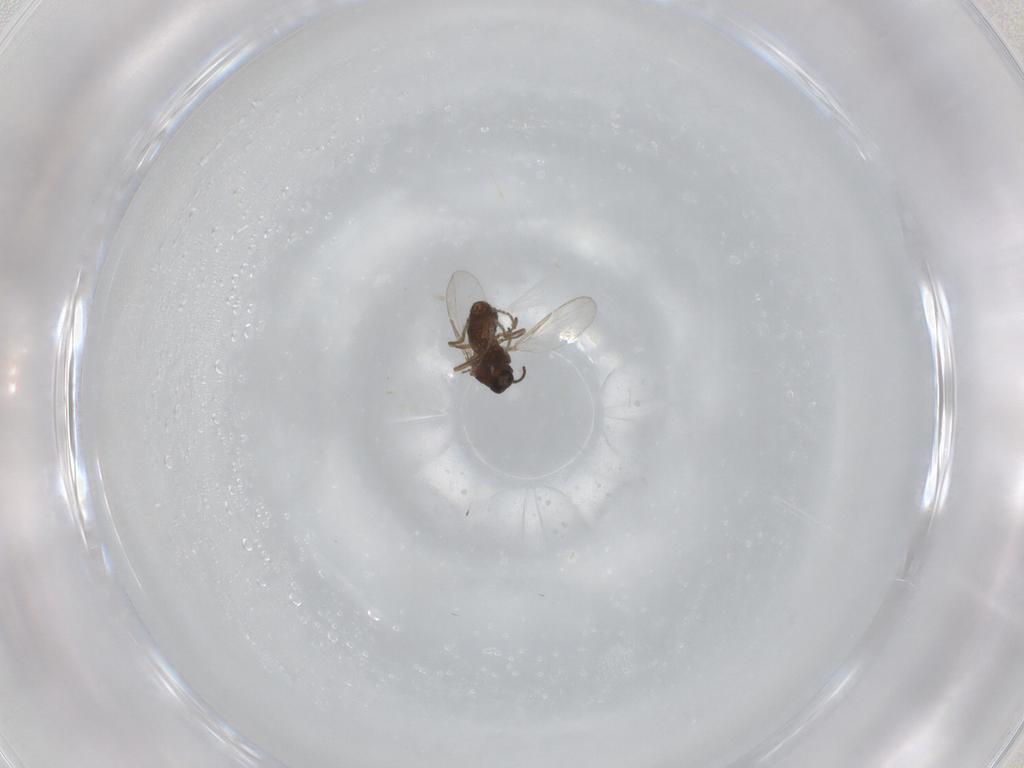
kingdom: Animalia
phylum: Arthropoda
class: Insecta
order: Diptera
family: Ceratopogonidae
